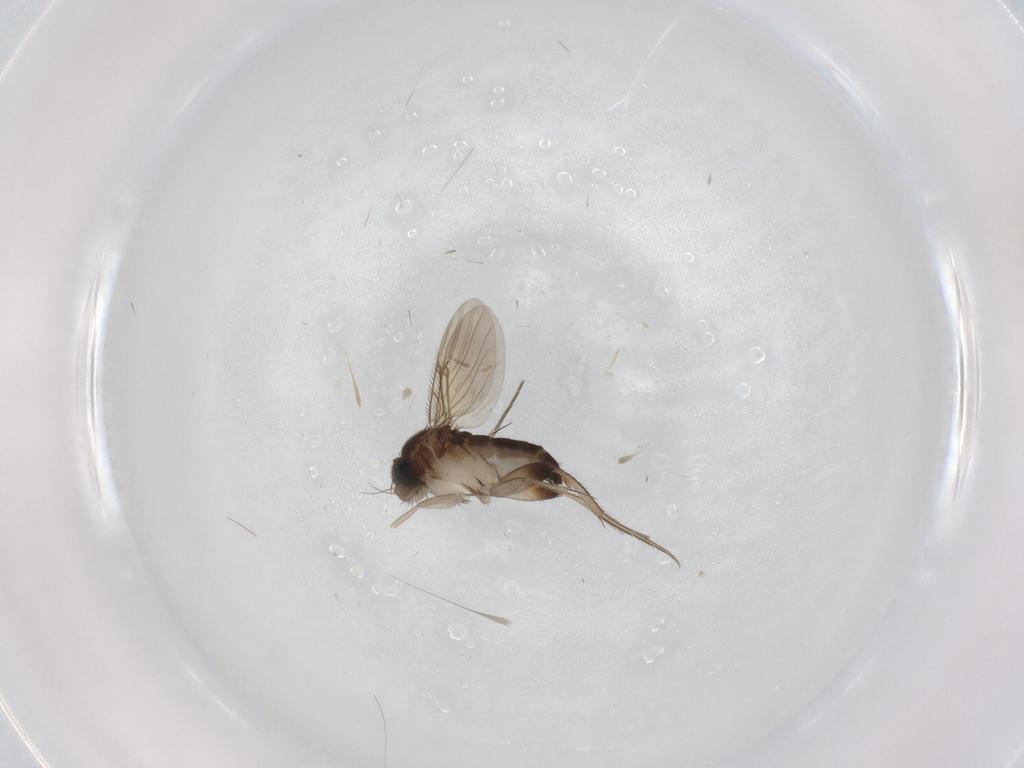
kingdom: Animalia
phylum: Arthropoda
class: Insecta
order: Diptera
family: Phoridae
